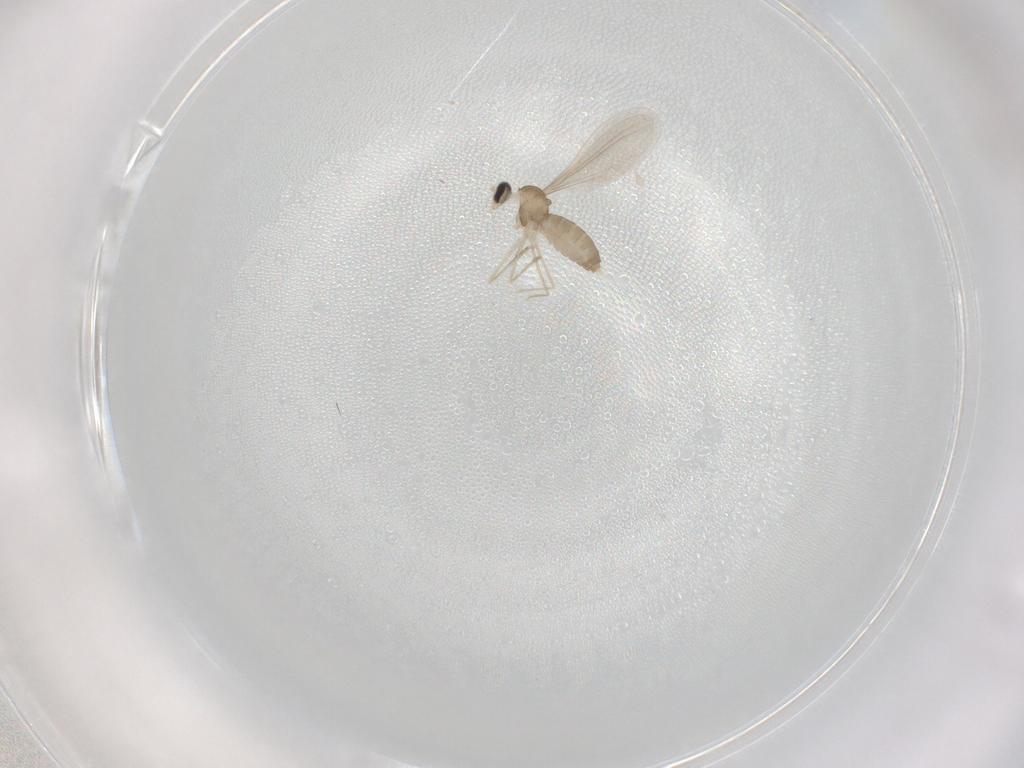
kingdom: Animalia
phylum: Arthropoda
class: Insecta
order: Diptera
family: Cecidomyiidae
